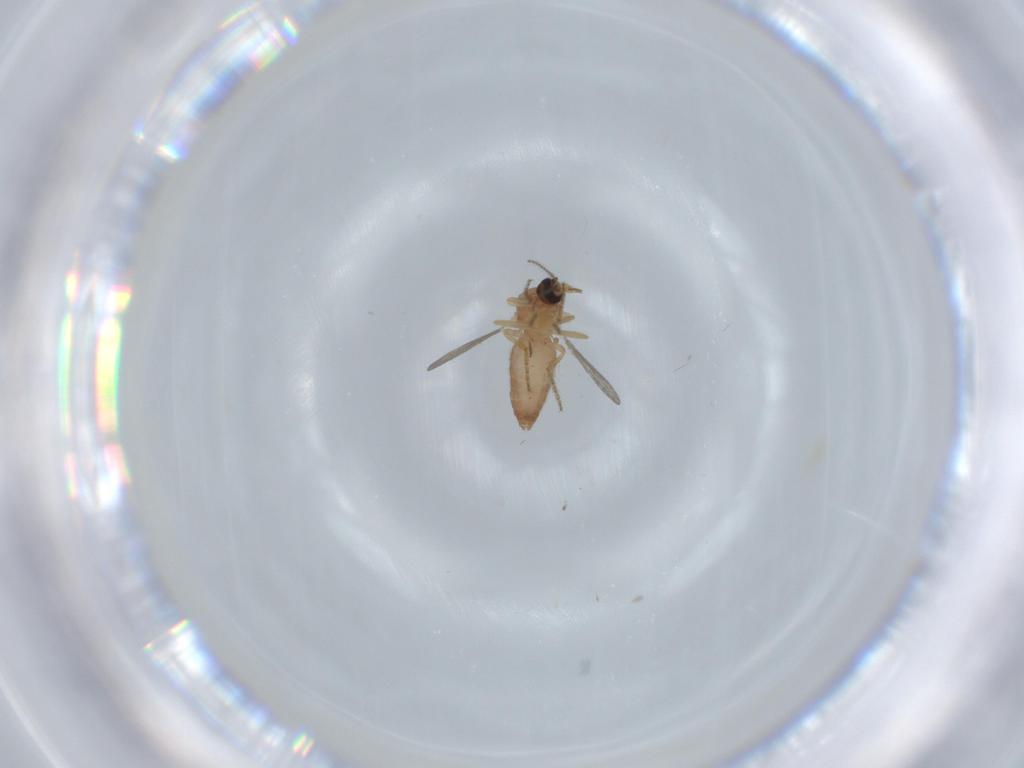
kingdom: Animalia
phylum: Arthropoda
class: Insecta
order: Diptera
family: Ceratopogonidae
